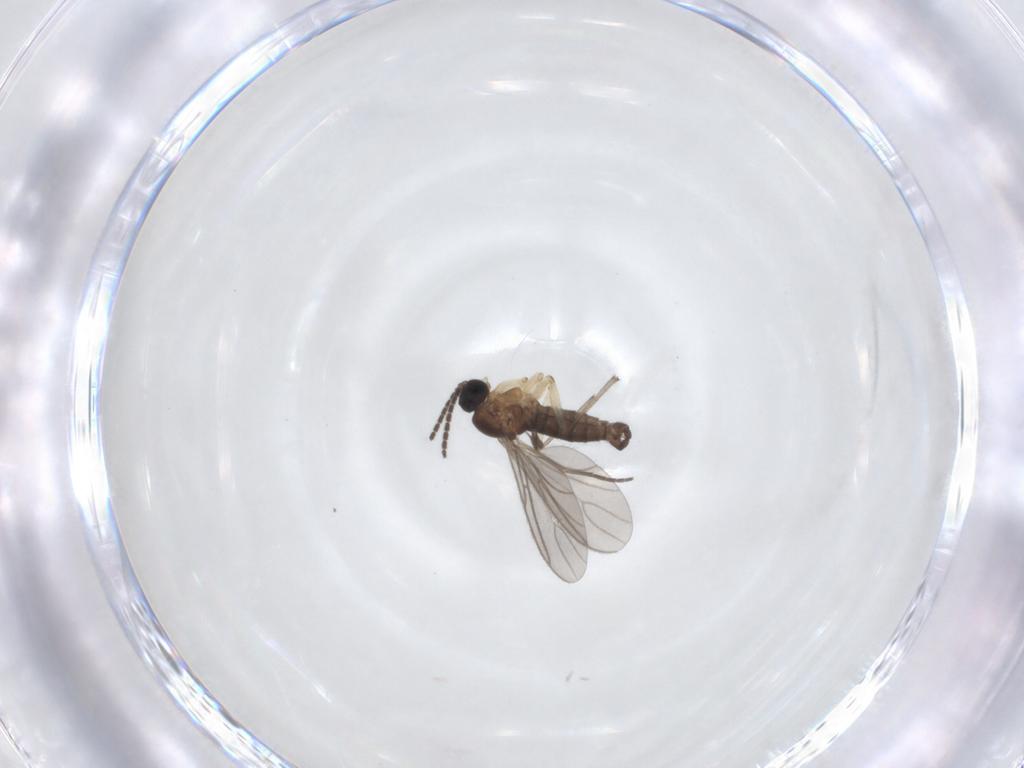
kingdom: Animalia
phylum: Arthropoda
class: Insecta
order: Diptera
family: Sciaridae
